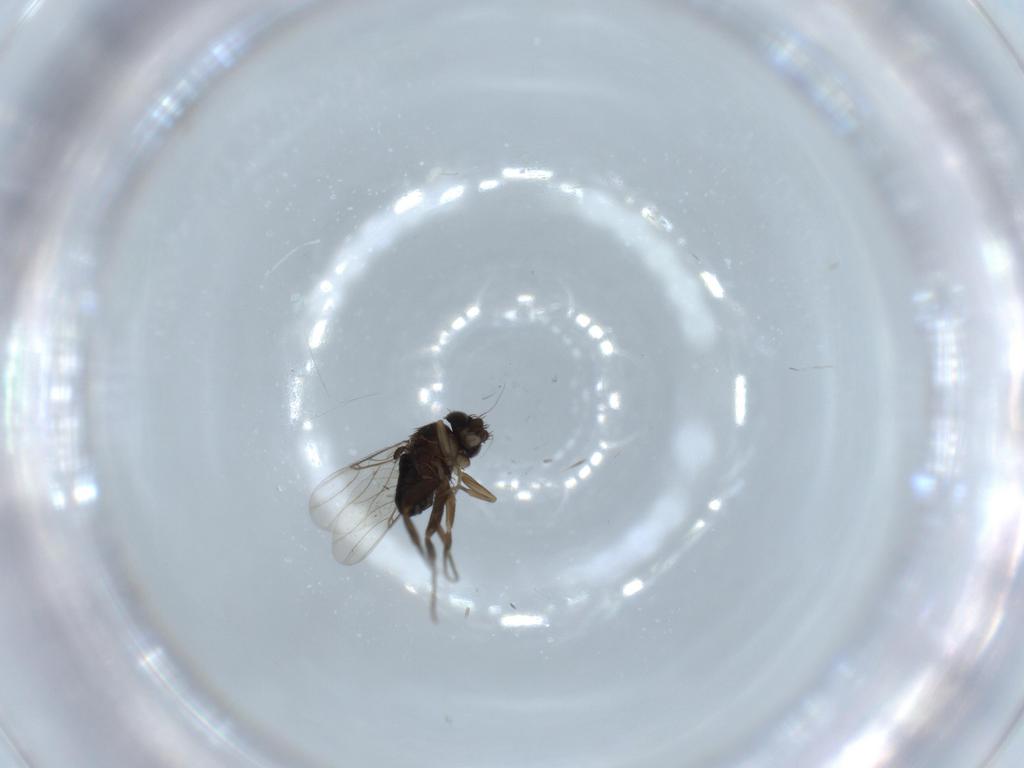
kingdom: Animalia
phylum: Arthropoda
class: Insecta
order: Diptera
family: Phoridae
